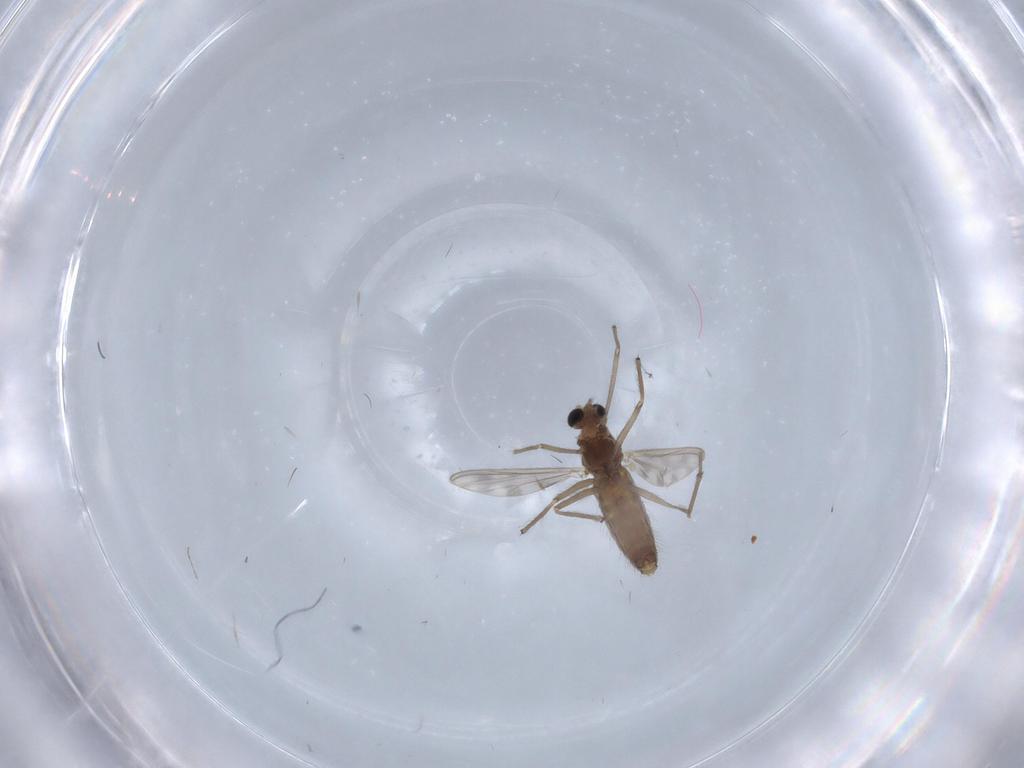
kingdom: Animalia
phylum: Arthropoda
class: Insecta
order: Diptera
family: Chironomidae
